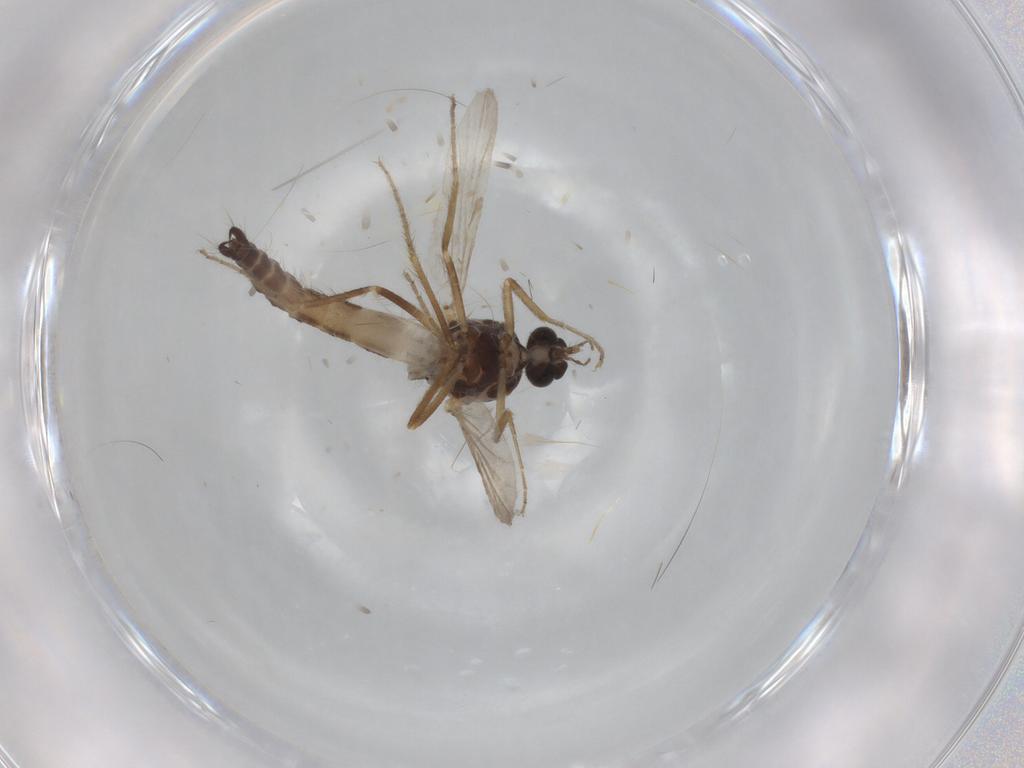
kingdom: Animalia
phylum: Arthropoda
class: Insecta
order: Diptera
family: Ceratopogonidae
